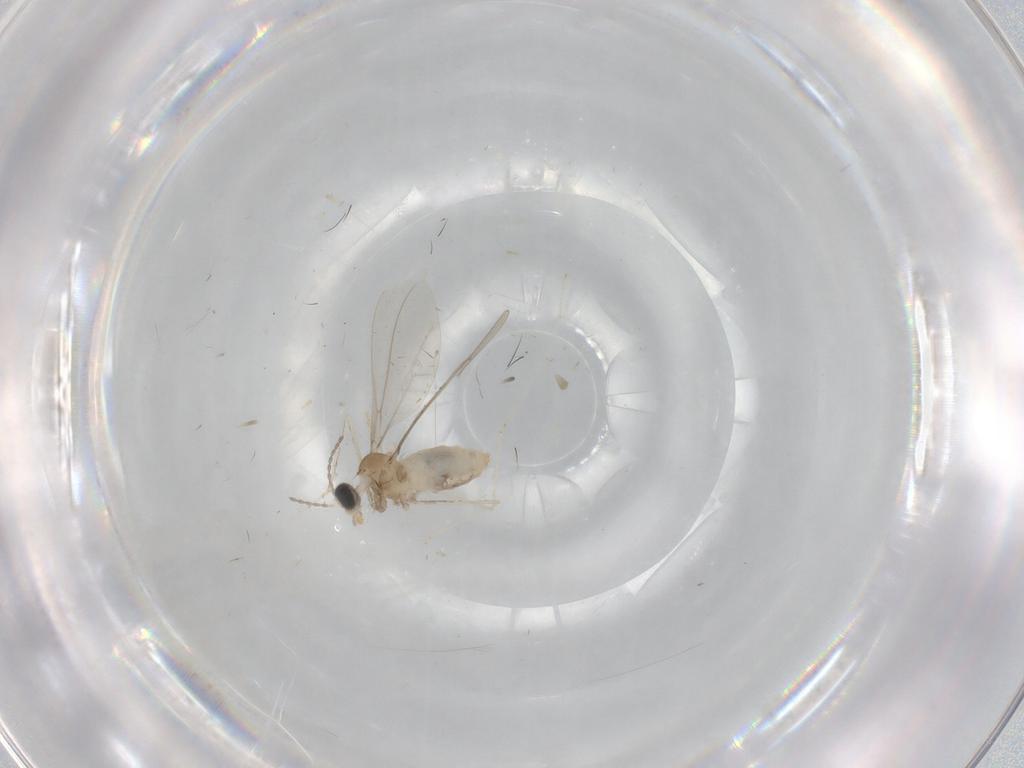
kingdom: Animalia
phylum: Arthropoda
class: Insecta
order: Diptera
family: Cecidomyiidae
